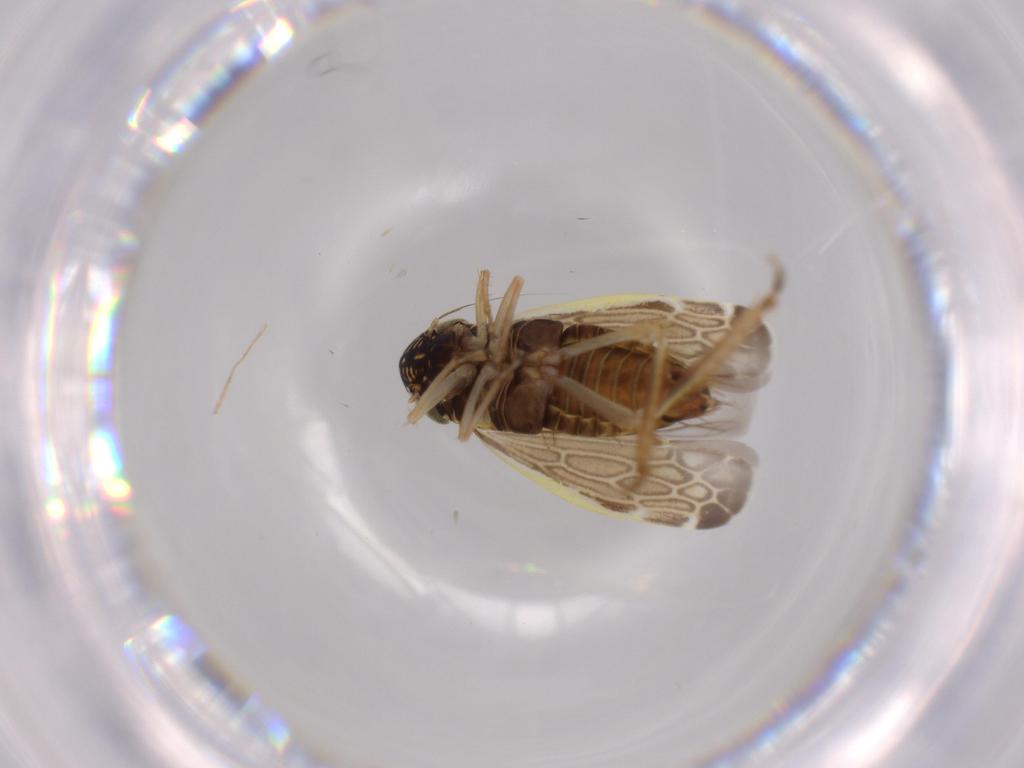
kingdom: Animalia
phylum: Arthropoda
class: Insecta
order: Hemiptera
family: Cicadellidae
